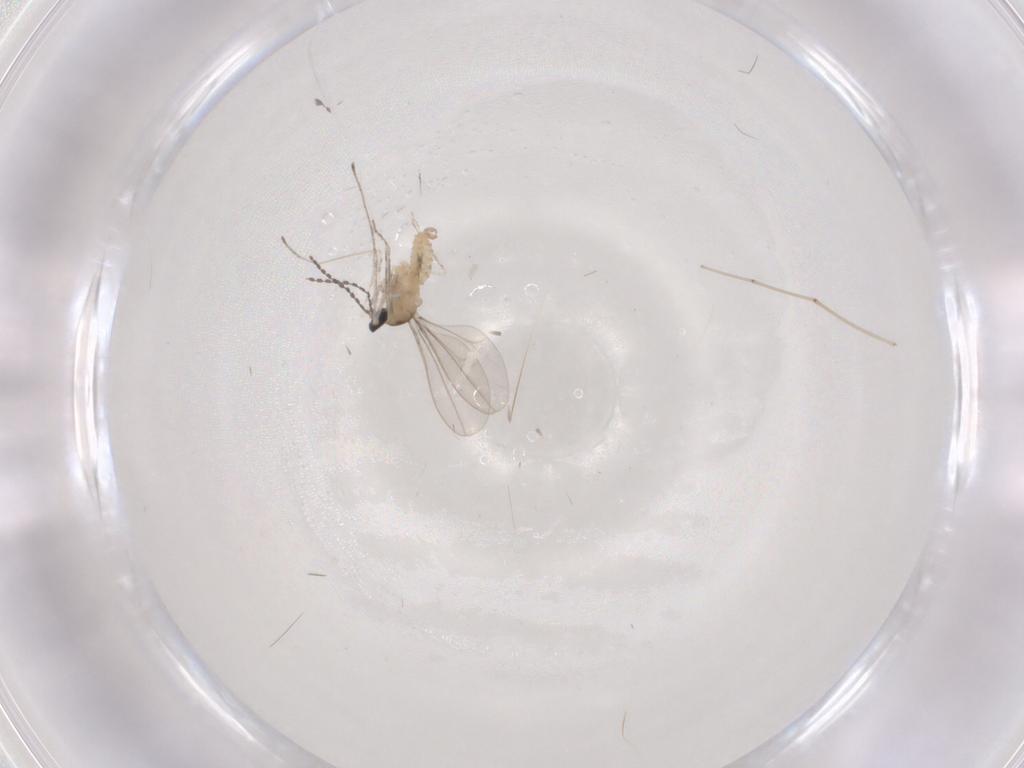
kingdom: Animalia
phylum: Arthropoda
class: Insecta
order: Diptera
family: Cecidomyiidae
